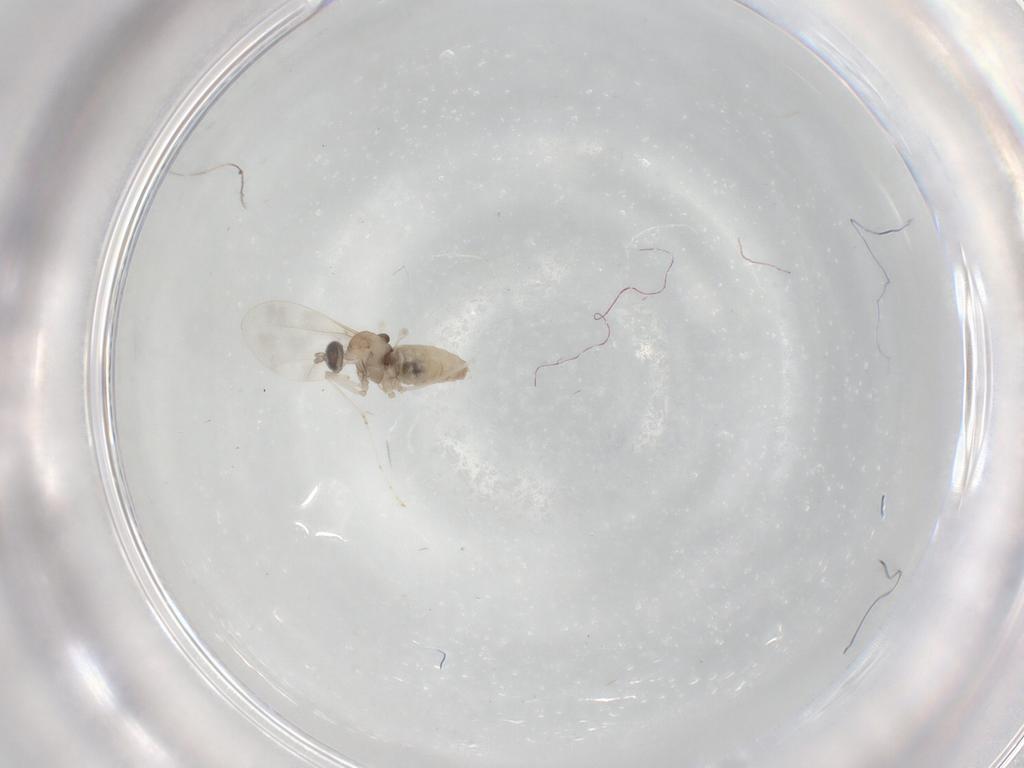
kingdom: Animalia
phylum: Arthropoda
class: Insecta
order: Diptera
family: Cecidomyiidae
